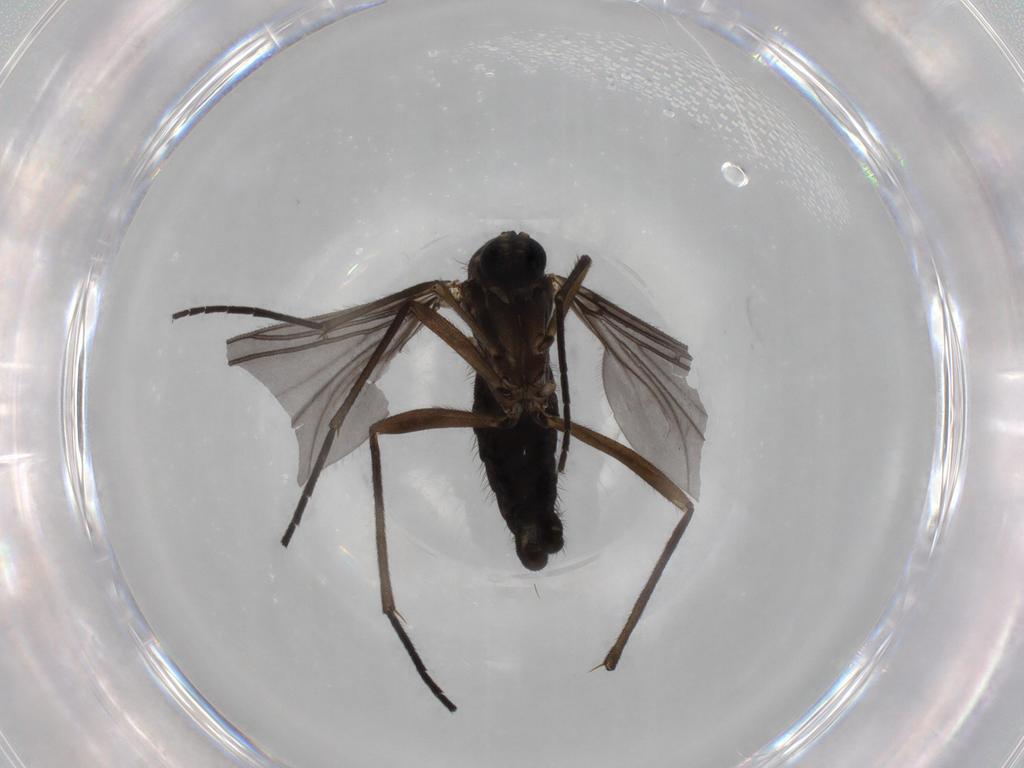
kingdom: Animalia
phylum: Arthropoda
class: Insecta
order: Diptera
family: Sciaridae
